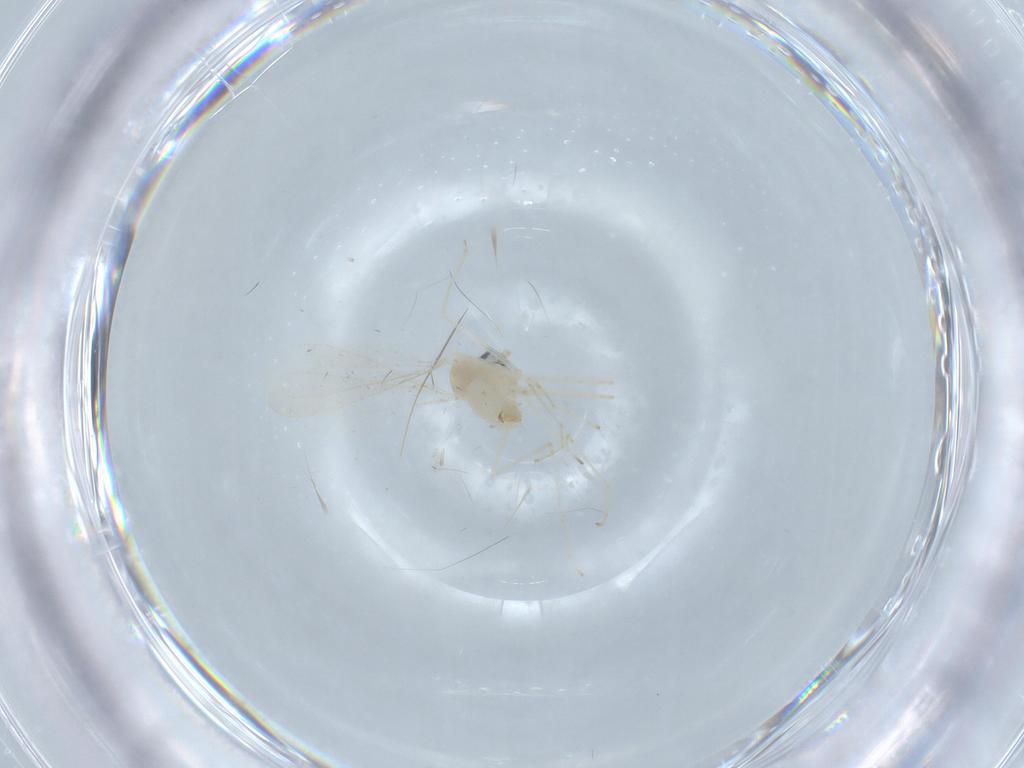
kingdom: Animalia
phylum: Arthropoda
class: Insecta
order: Diptera
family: Cecidomyiidae
